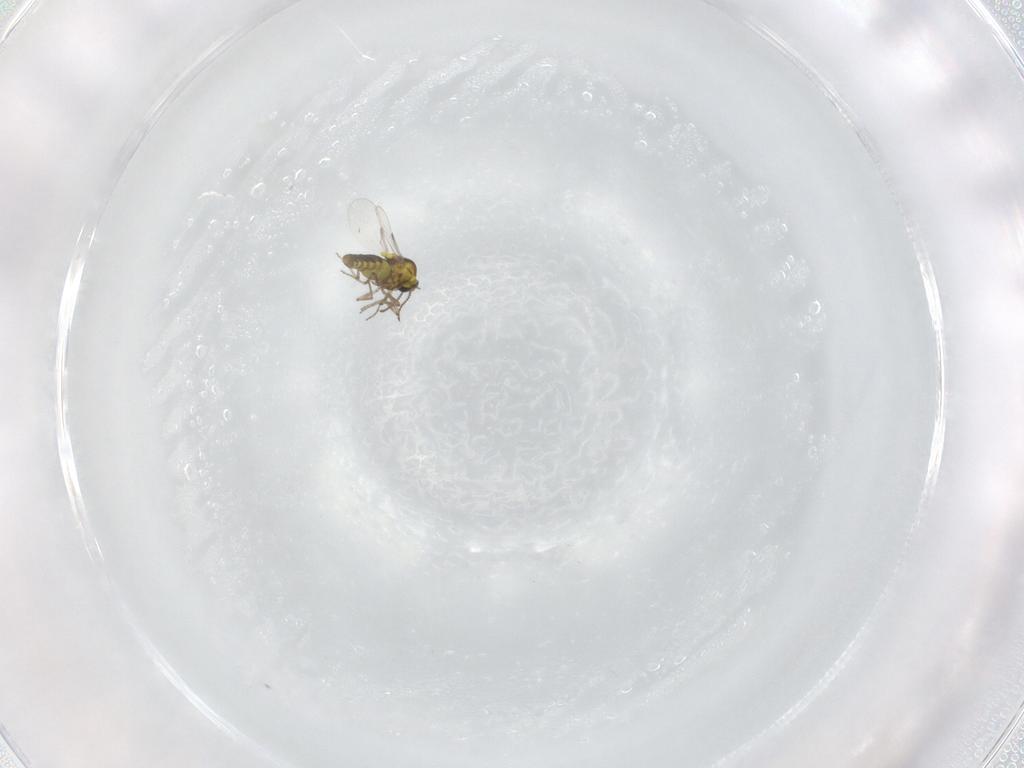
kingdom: Animalia
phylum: Arthropoda
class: Insecta
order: Diptera
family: Ceratopogonidae
